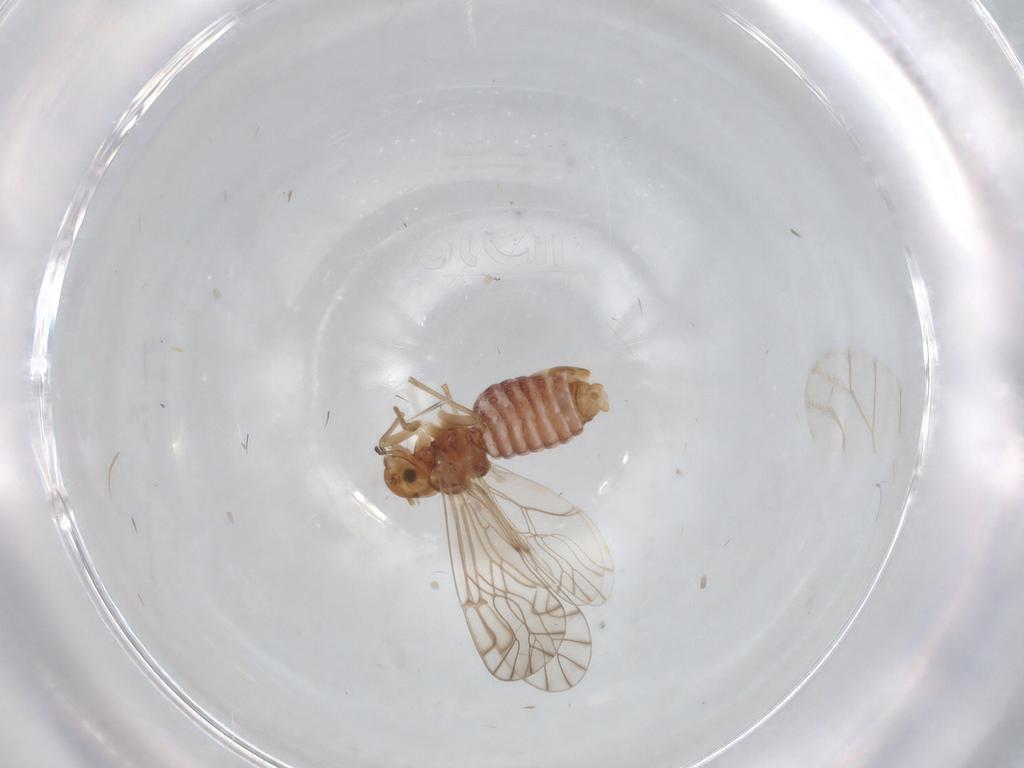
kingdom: Animalia
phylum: Arthropoda
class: Insecta
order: Psocodea
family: Lachesillidae
